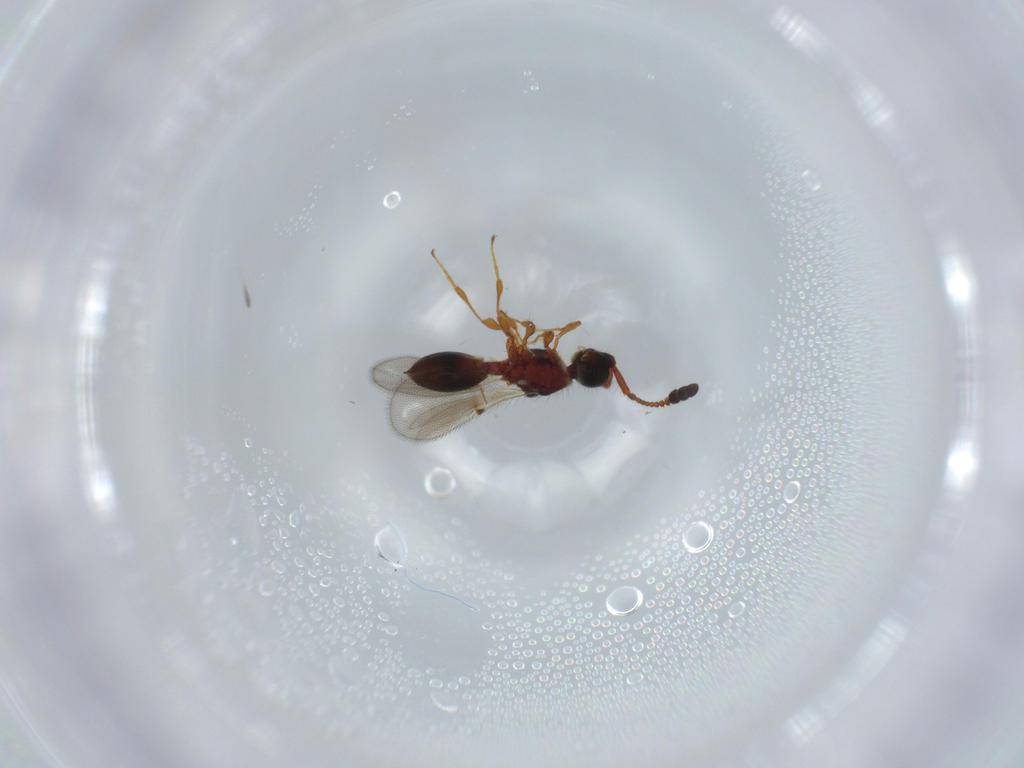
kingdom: Animalia
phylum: Arthropoda
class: Insecta
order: Hymenoptera
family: Diapriidae
